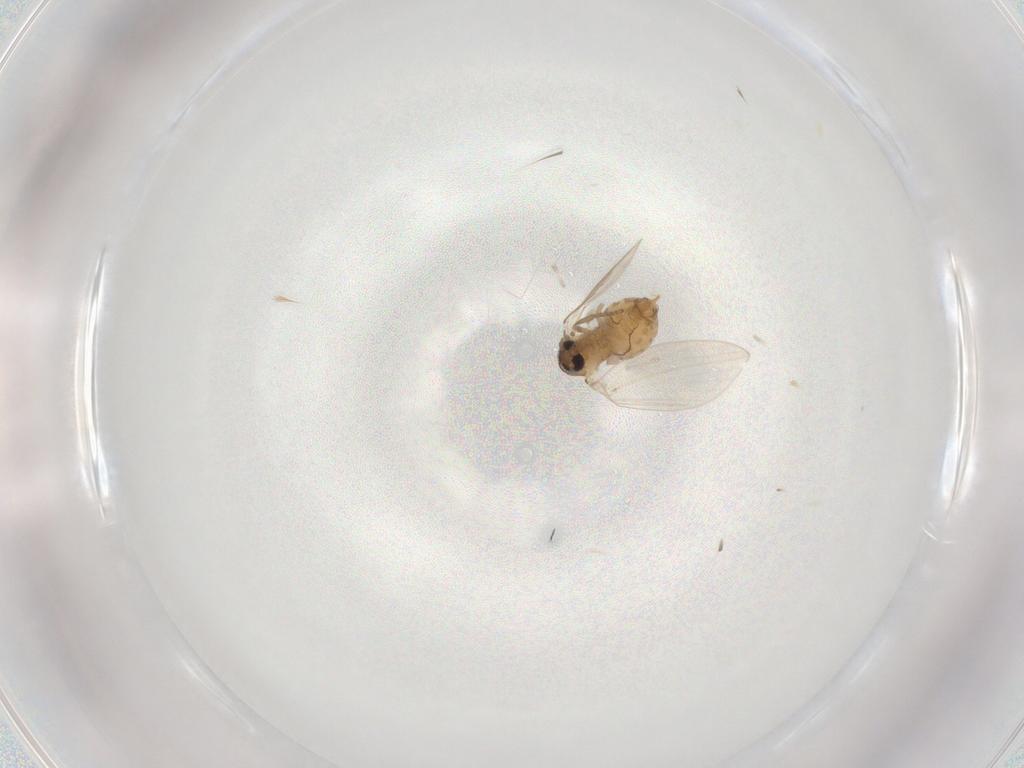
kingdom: Animalia
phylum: Arthropoda
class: Insecta
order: Diptera
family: Psychodidae
